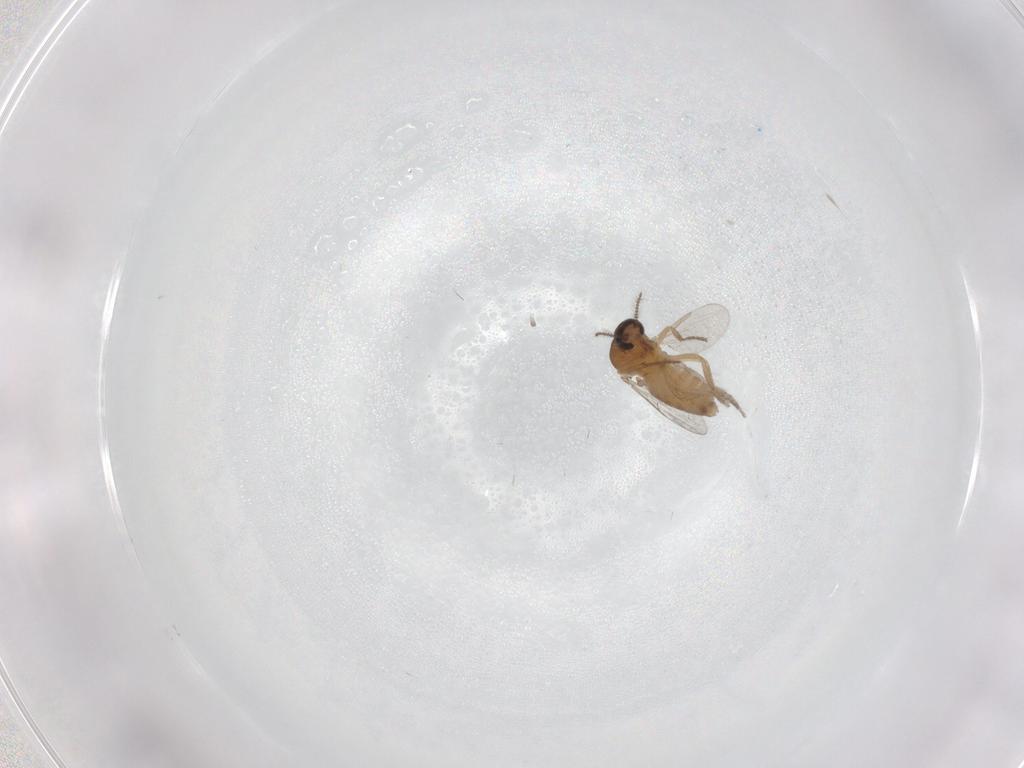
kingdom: Animalia
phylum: Arthropoda
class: Insecta
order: Diptera
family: Ceratopogonidae
